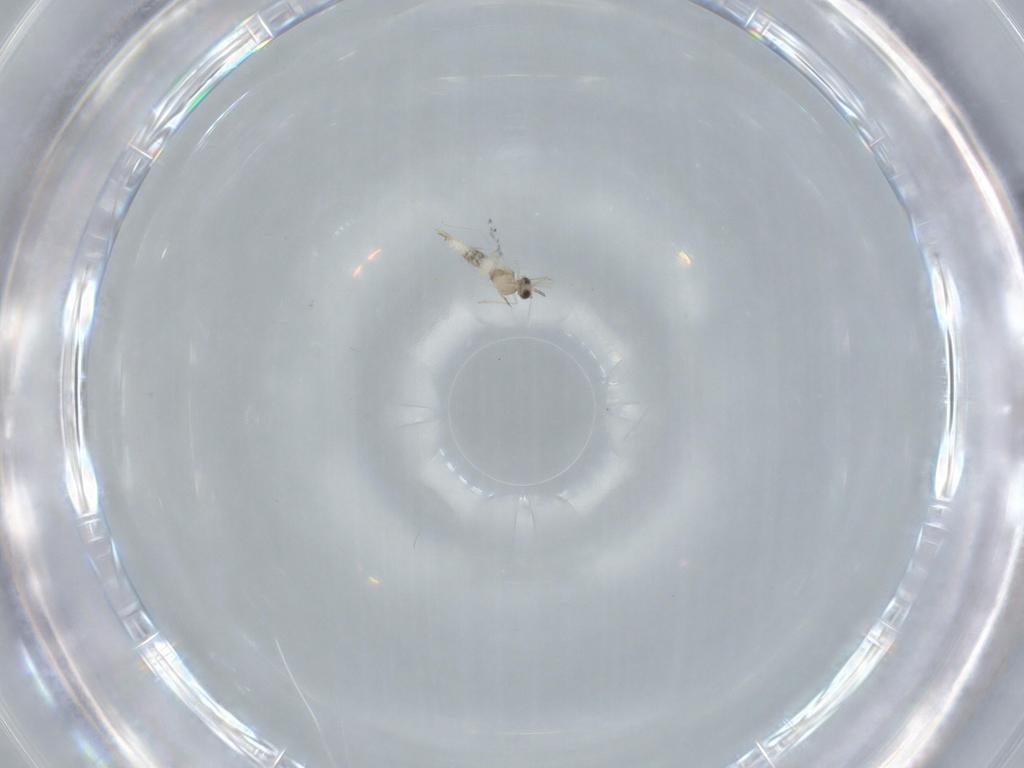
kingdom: Animalia
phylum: Arthropoda
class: Insecta
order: Diptera
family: Cecidomyiidae
